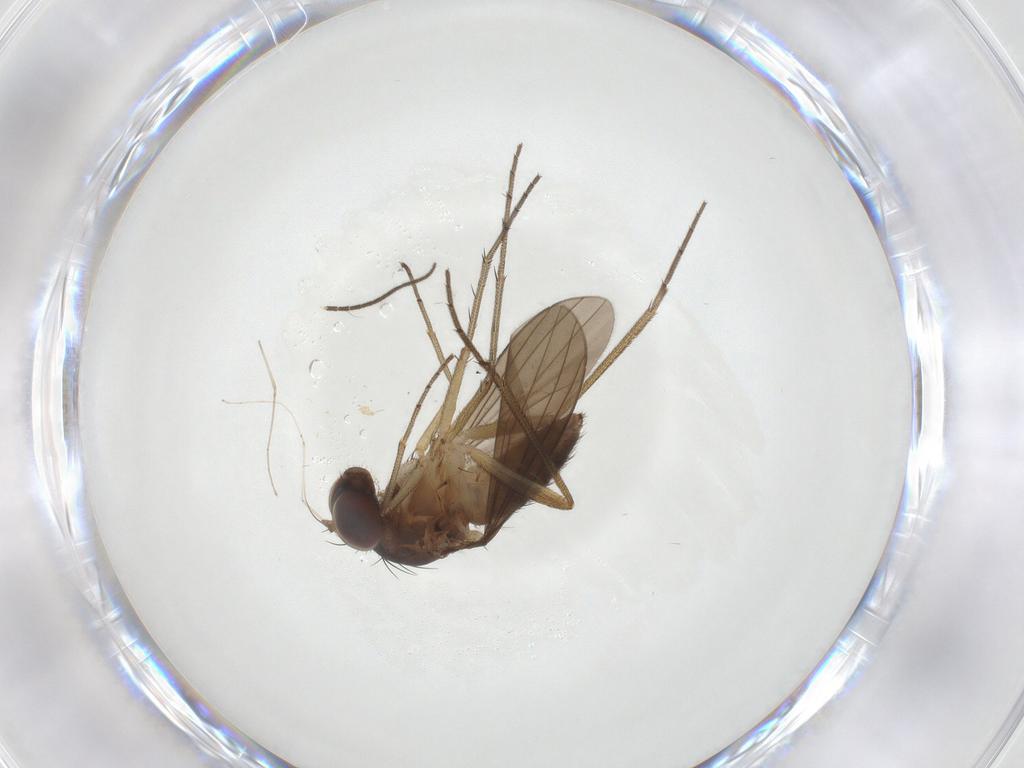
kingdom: Animalia
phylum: Arthropoda
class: Insecta
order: Diptera
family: Dolichopodidae
